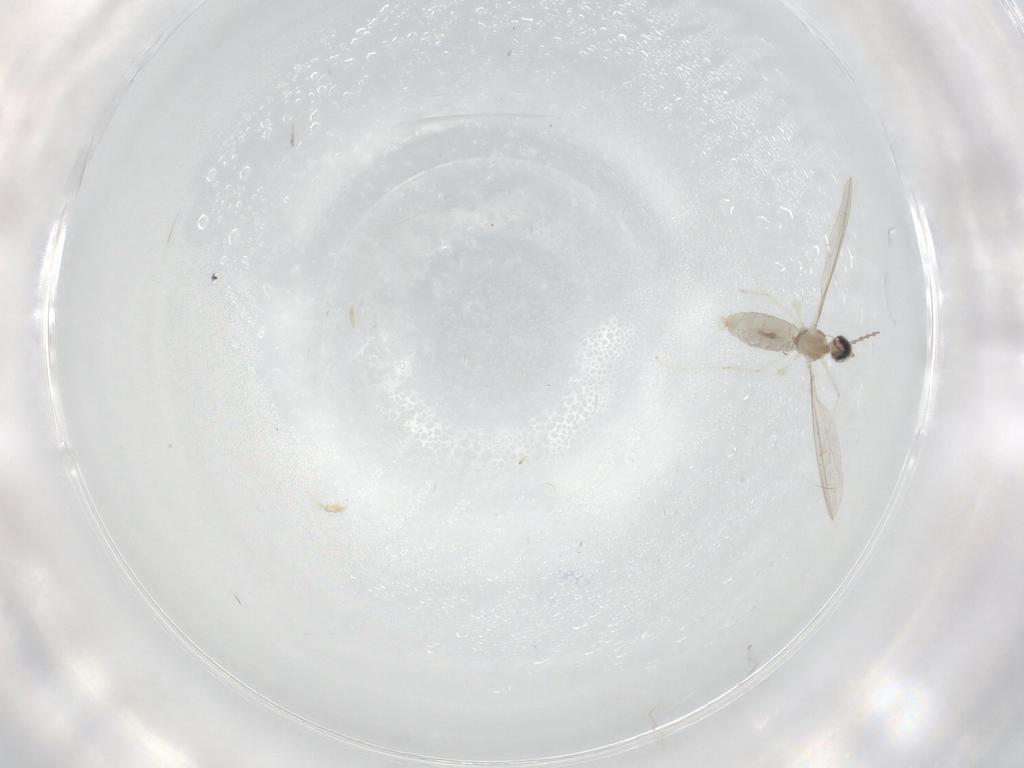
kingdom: Animalia
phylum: Arthropoda
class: Insecta
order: Diptera
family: Cecidomyiidae
